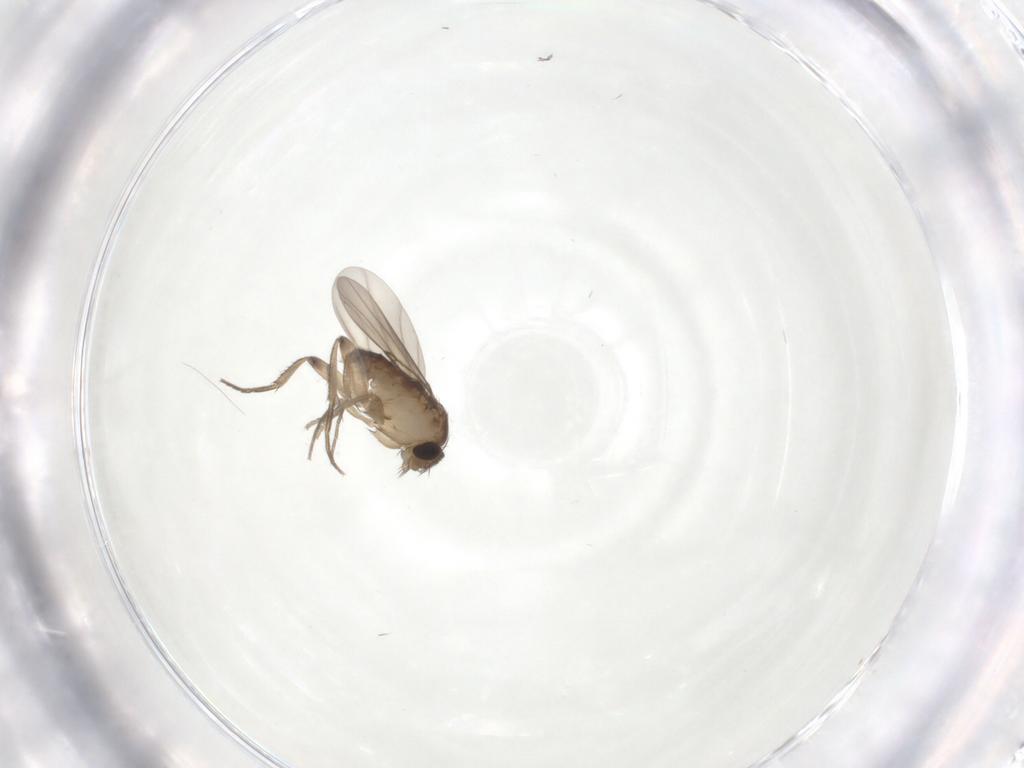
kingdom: Animalia
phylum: Arthropoda
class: Insecta
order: Diptera
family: Phoridae
